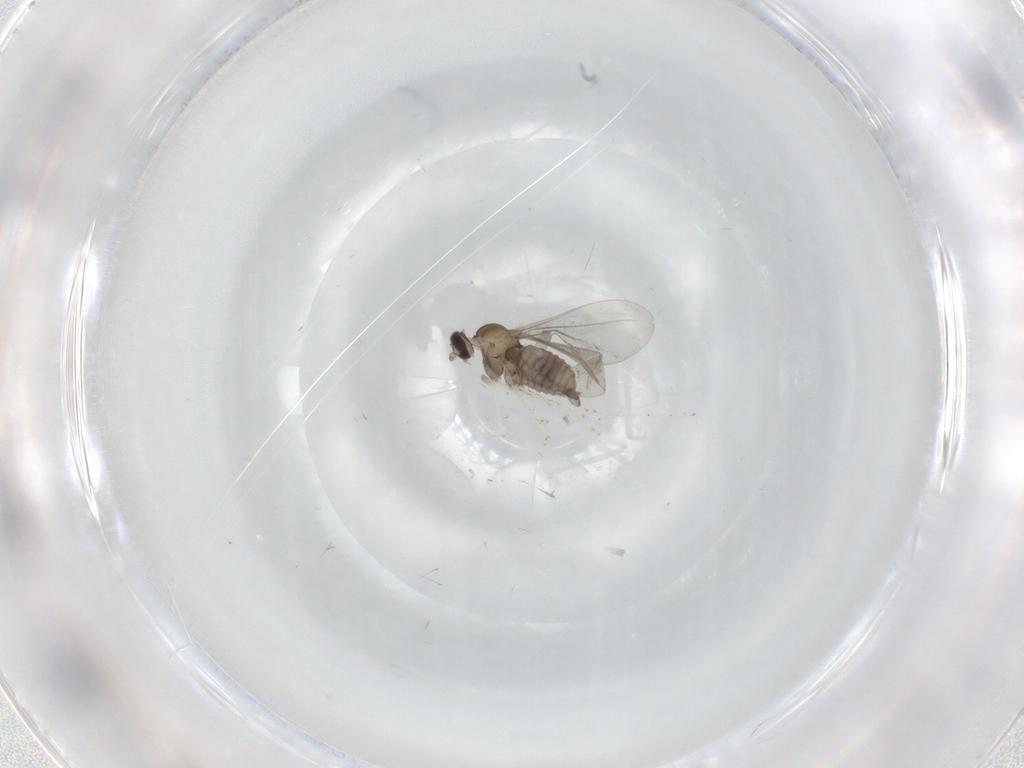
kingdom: Animalia
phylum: Arthropoda
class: Insecta
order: Diptera
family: Cecidomyiidae
